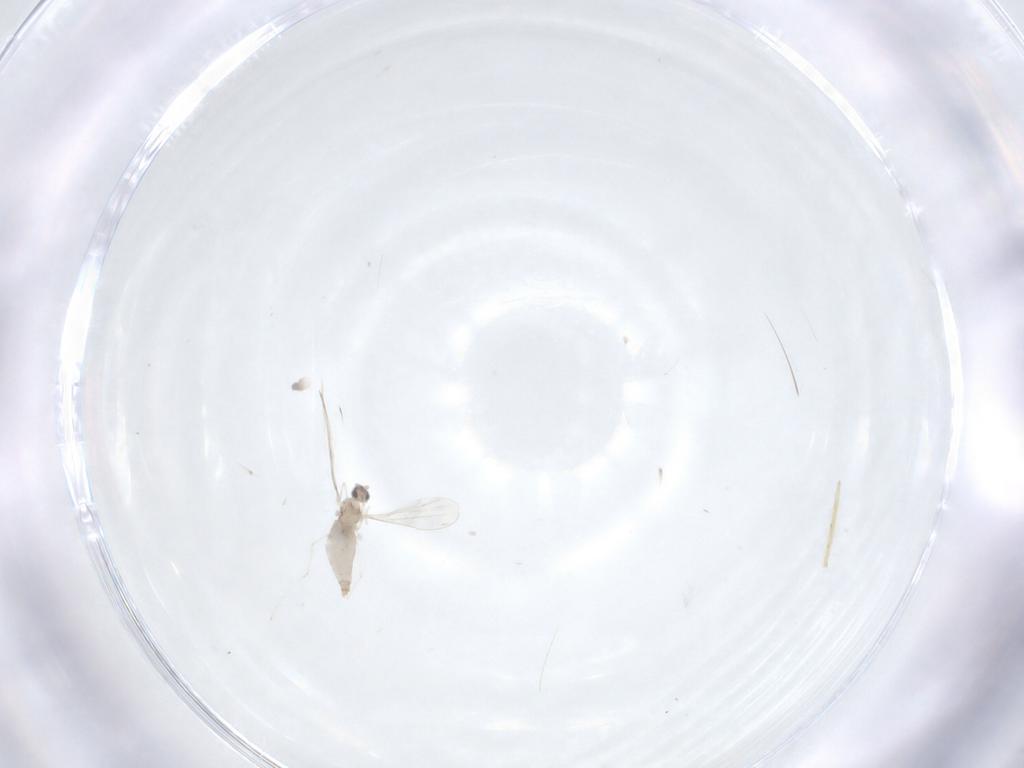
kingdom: Animalia
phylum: Arthropoda
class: Insecta
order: Diptera
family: Cecidomyiidae
